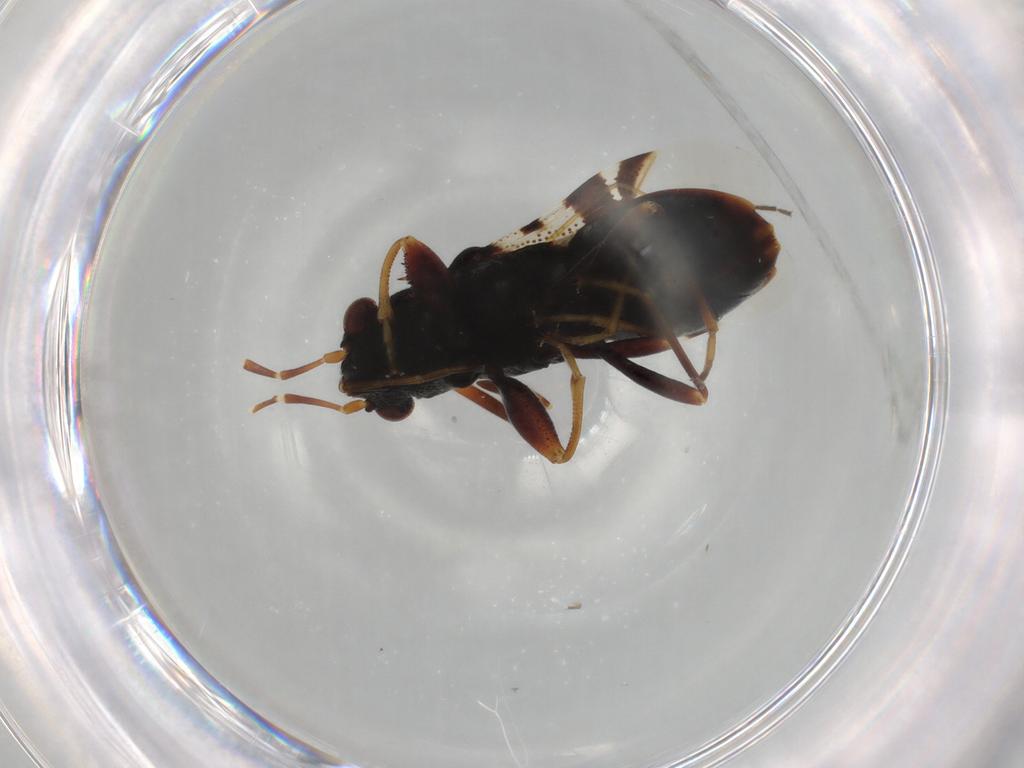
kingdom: Animalia
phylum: Arthropoda
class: Insecta
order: Hemiptera
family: Rhyparochromidae
